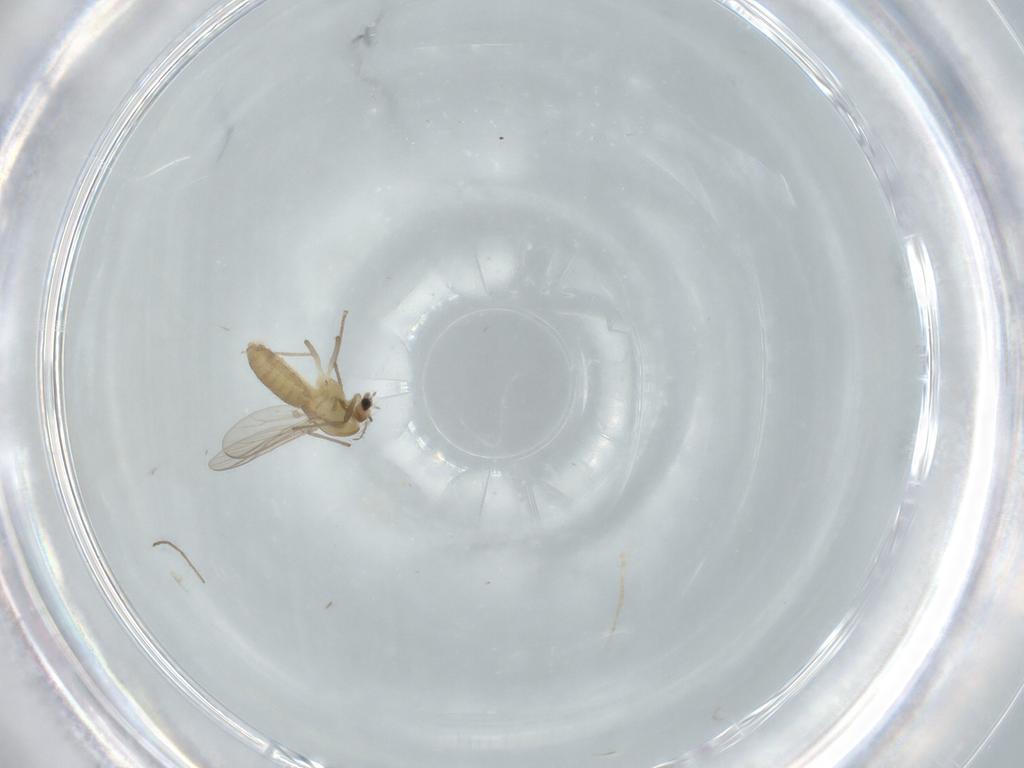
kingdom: Animalia
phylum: Arthropoda
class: Insecta
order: Diptera
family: Chironomidae
